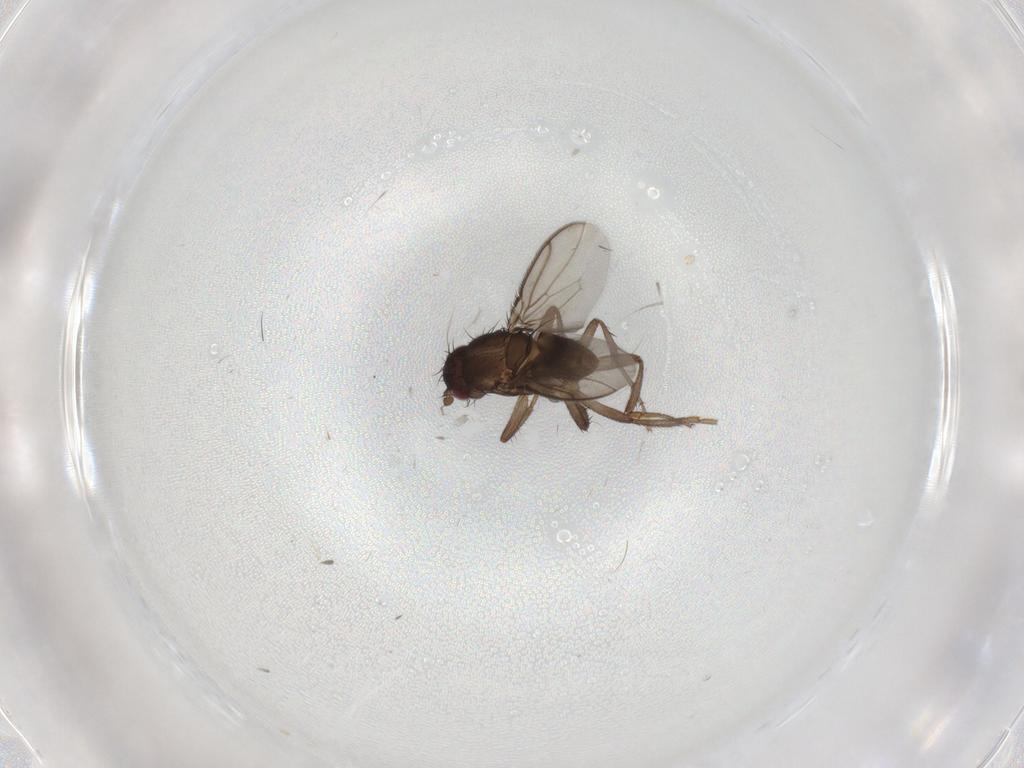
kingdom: Animalia
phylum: Arthropoda
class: Insecta
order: Diptera
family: Sphaeroceridae
